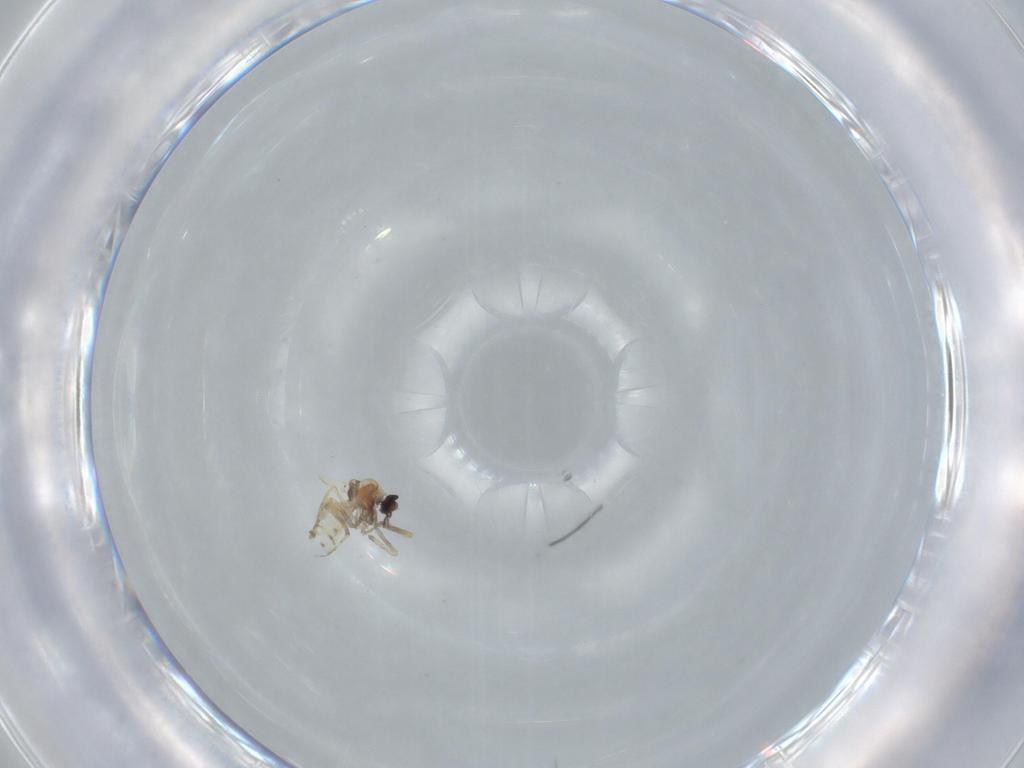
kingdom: Animalia
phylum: Arthropoda
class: Insecta
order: Diptera
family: Ceratopogonidae
